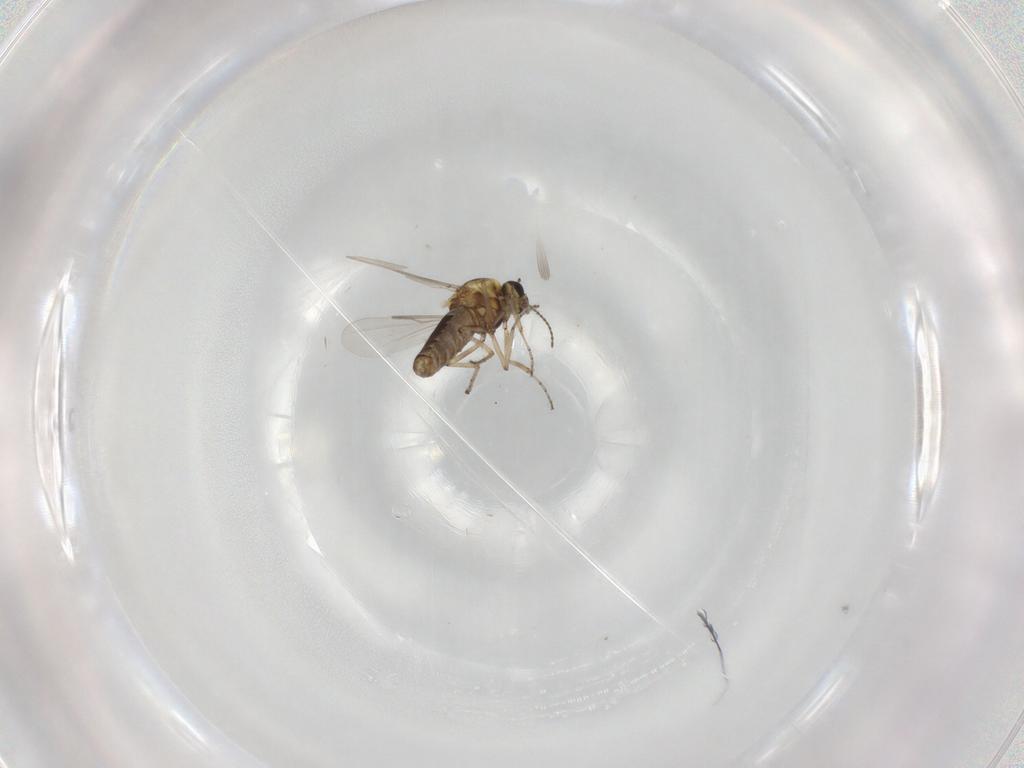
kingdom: Animalia
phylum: Arthropoda
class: Insecta
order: Diptera
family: Ceratopogonidae
